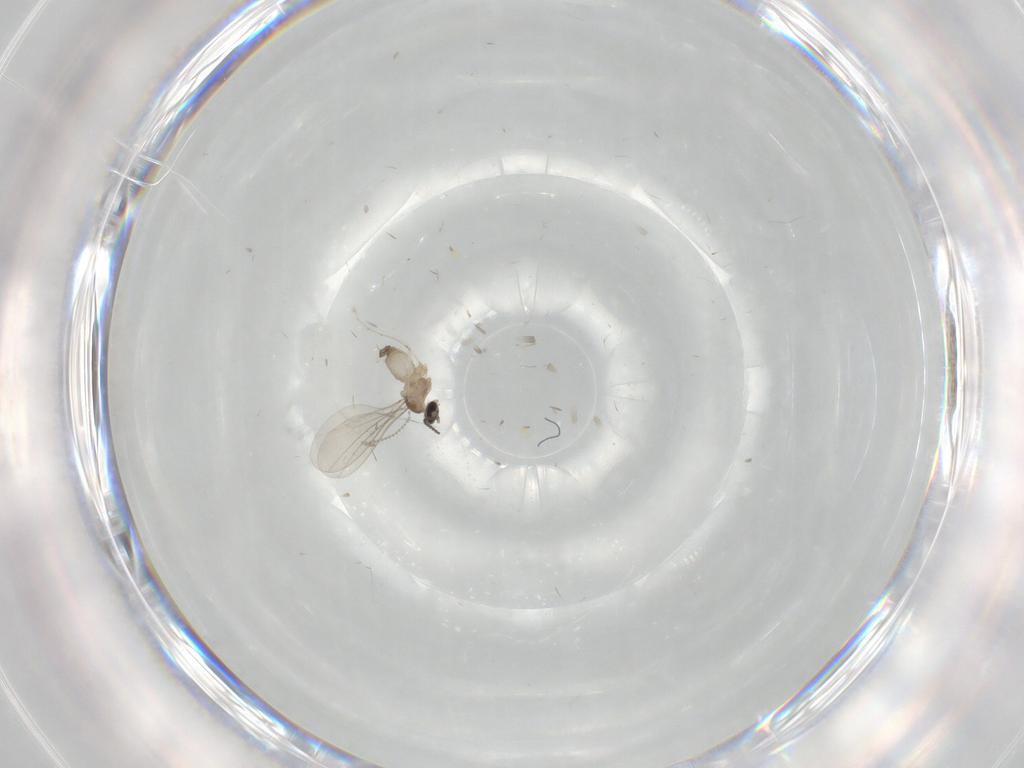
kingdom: Animalia
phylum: Arthropoda
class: Insecta
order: Diptera
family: Cecidomyiidae
